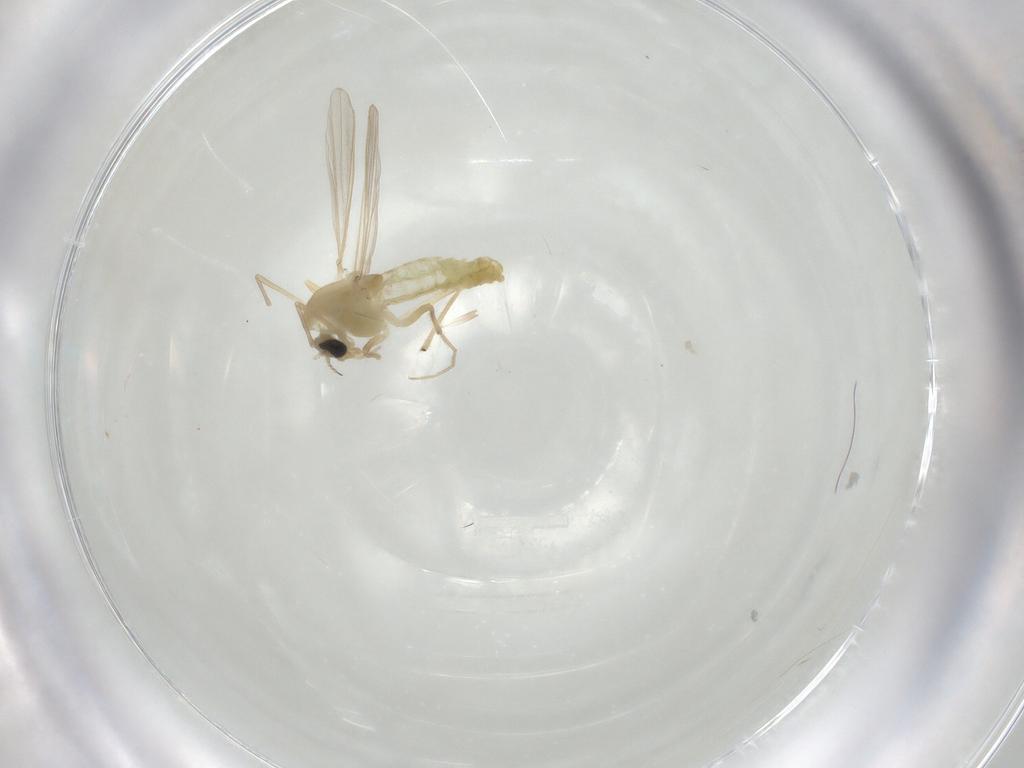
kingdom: Animalia
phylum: Arthropoda
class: Insecta
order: Diptera
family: Chironomidae
